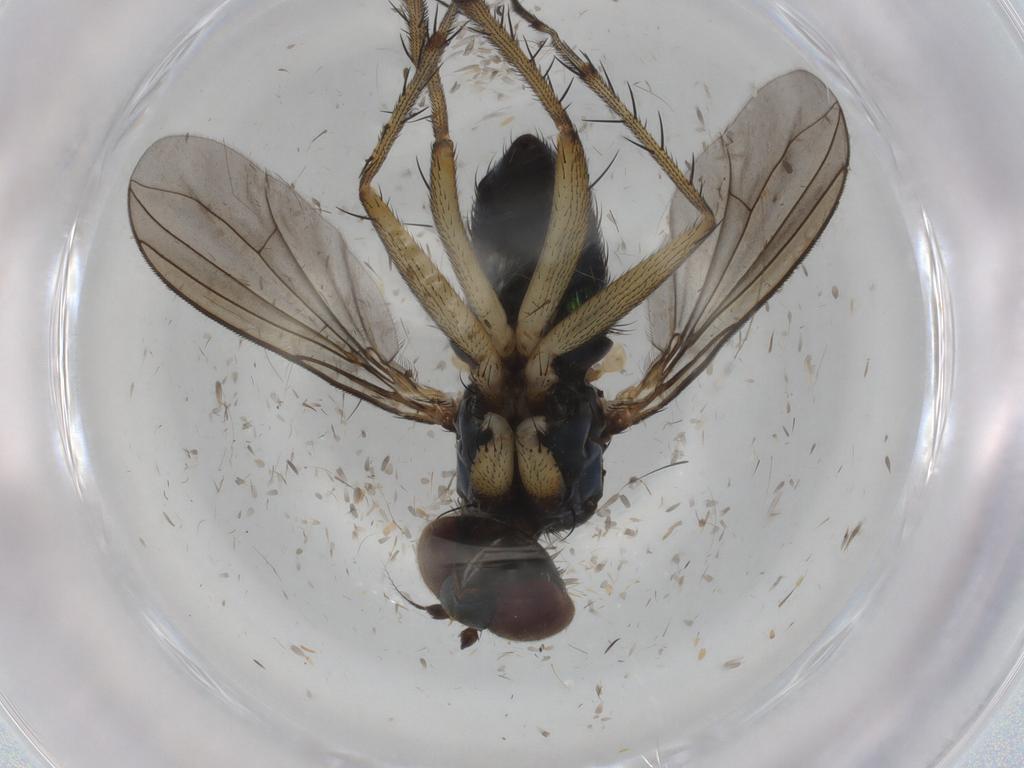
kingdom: Animalia
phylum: Arthropoda
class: Insecta
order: Diptera
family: Dolichopodidae
